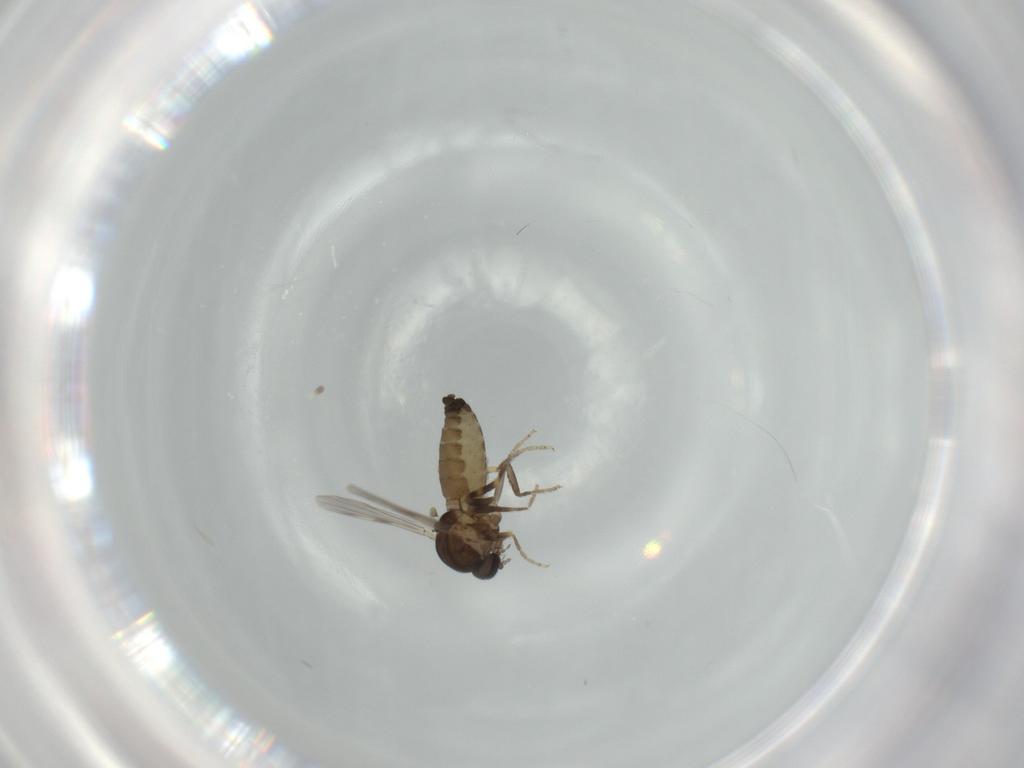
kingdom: Animalia
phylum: Arthropoda
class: Insecta
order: Diptera
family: Ceratopogonidae
